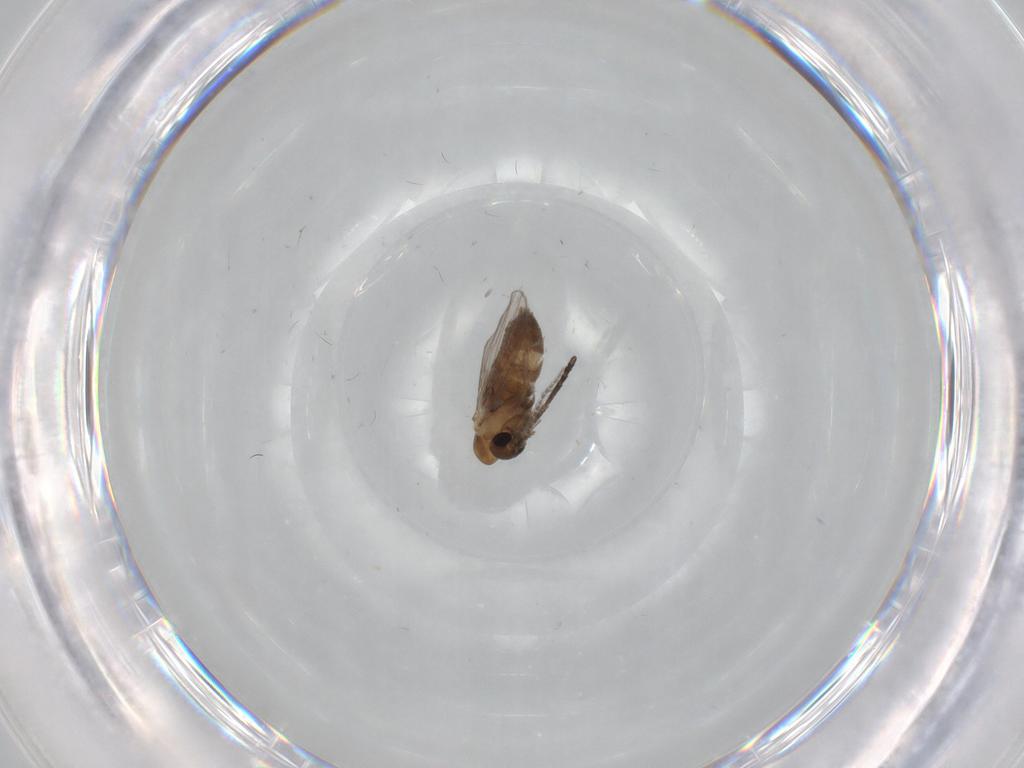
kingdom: Animalia
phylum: Arthropoda
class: Insecta
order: Diptera
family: Psychodidae
